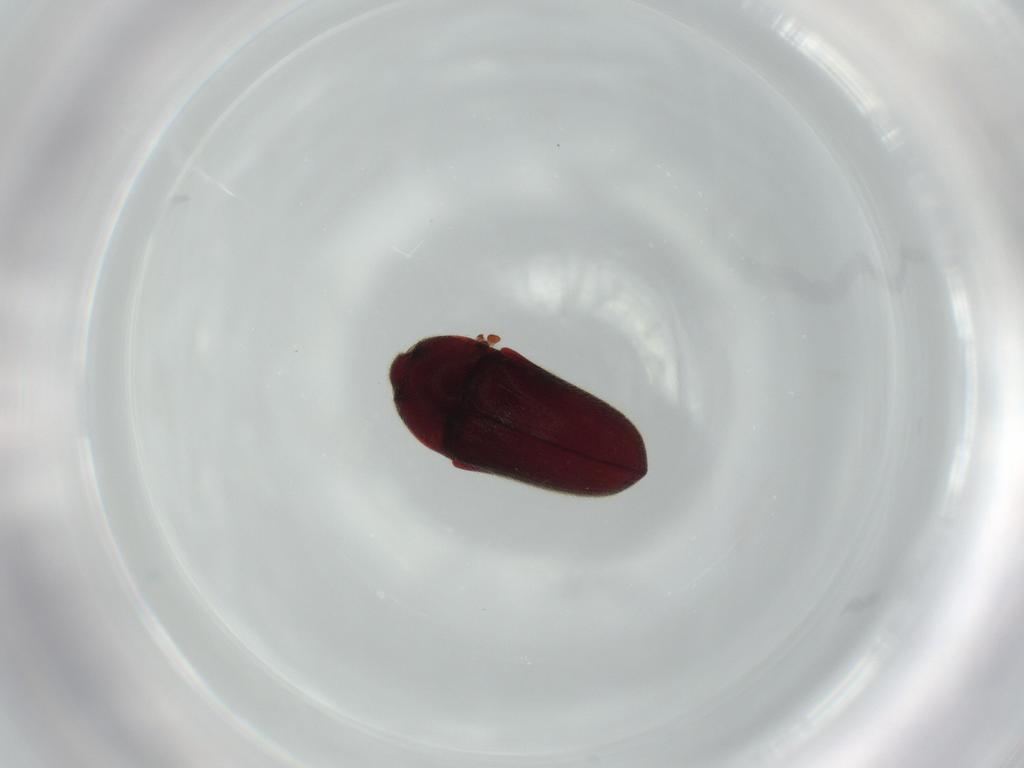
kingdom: Animalia
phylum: Arthropoda
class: Insecta
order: Coleoptera
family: Throscidae
